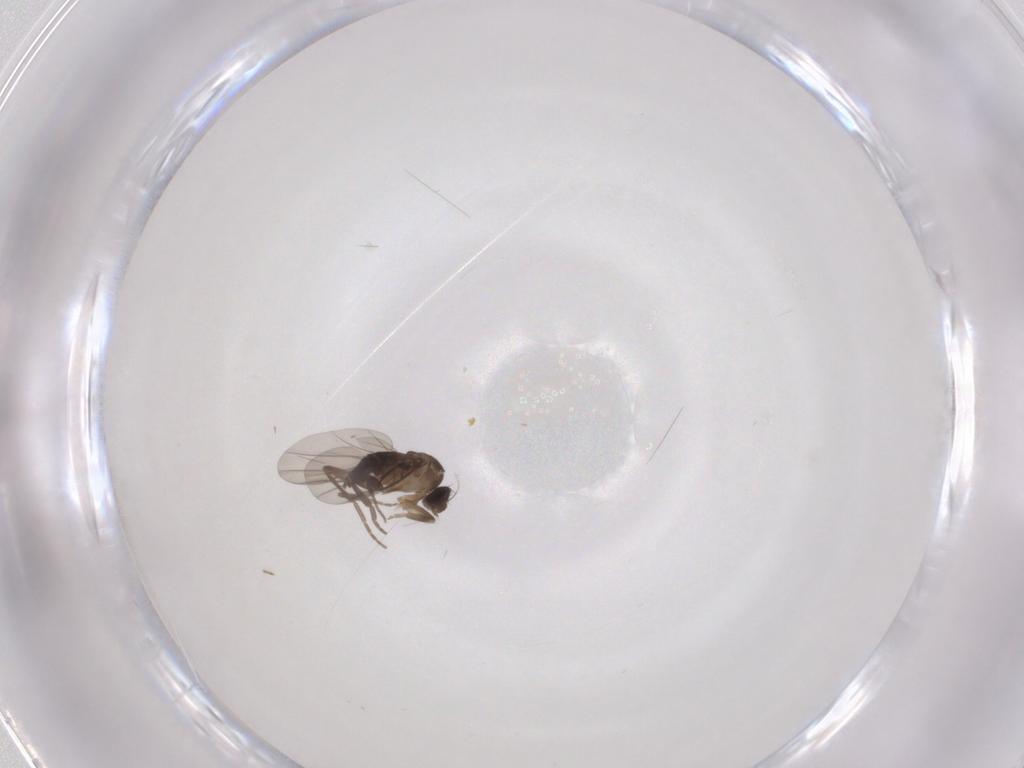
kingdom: Animalia
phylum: Arthropoda
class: Insecta
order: Diptera
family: Phoridae
